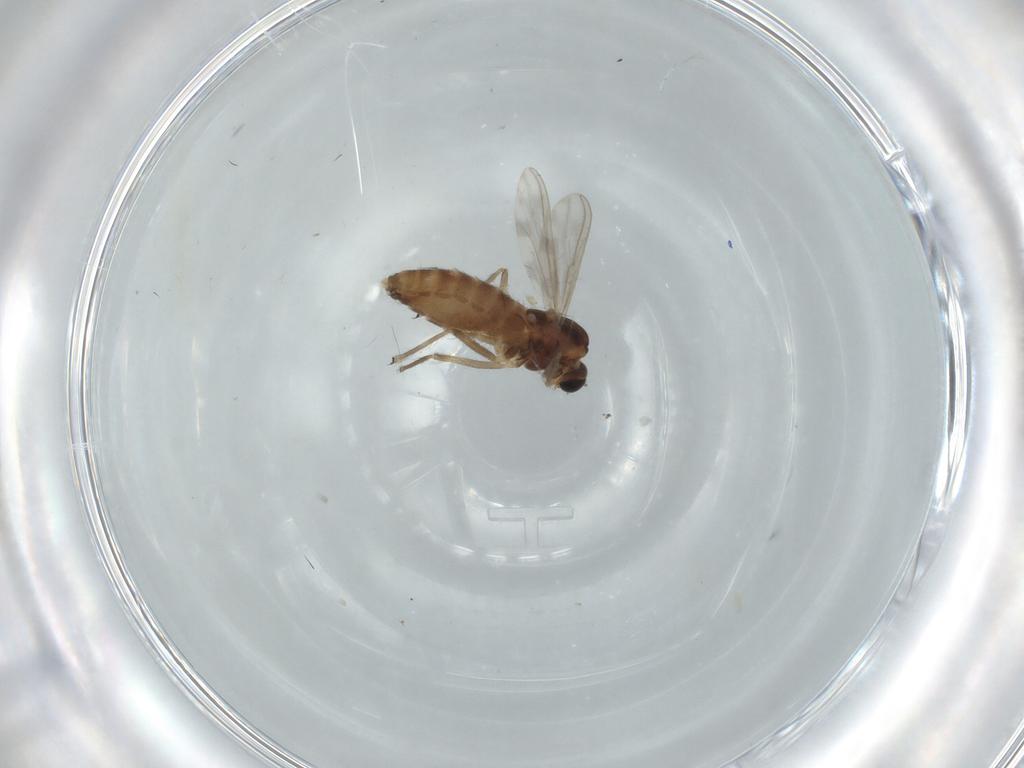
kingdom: Animalia
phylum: Arthropoda
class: Insecta
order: Diptera
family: Chironomidae
